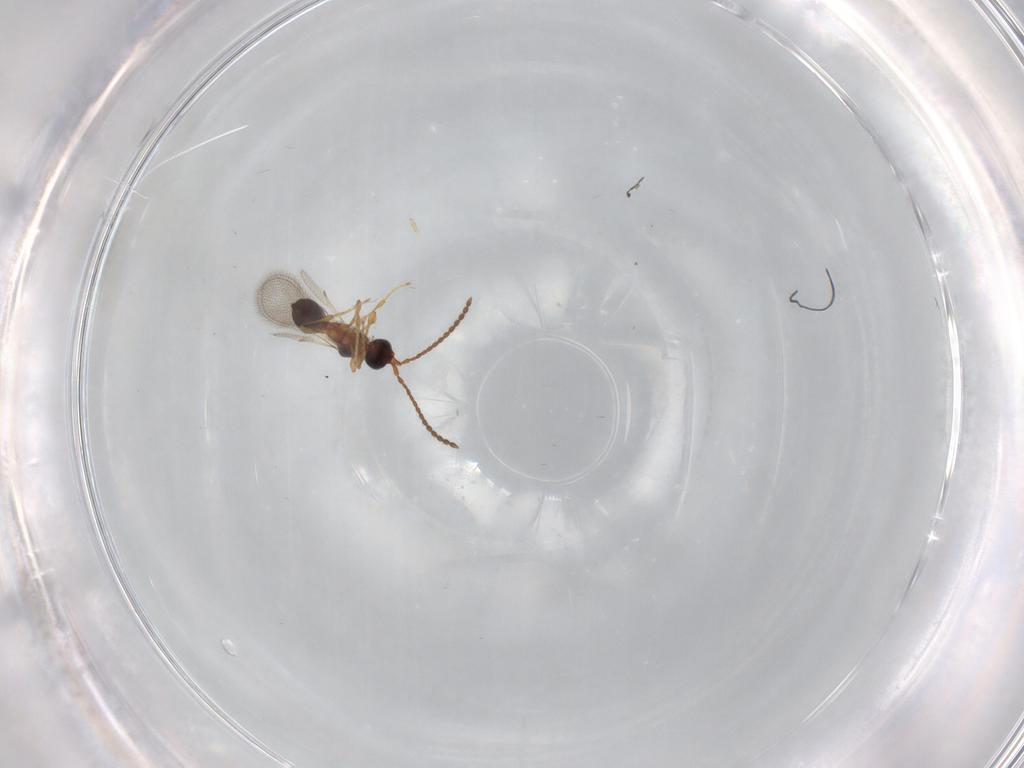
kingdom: Animalia
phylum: Arthropoda
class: Insecta
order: Hymenoptera
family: Diapriidae
